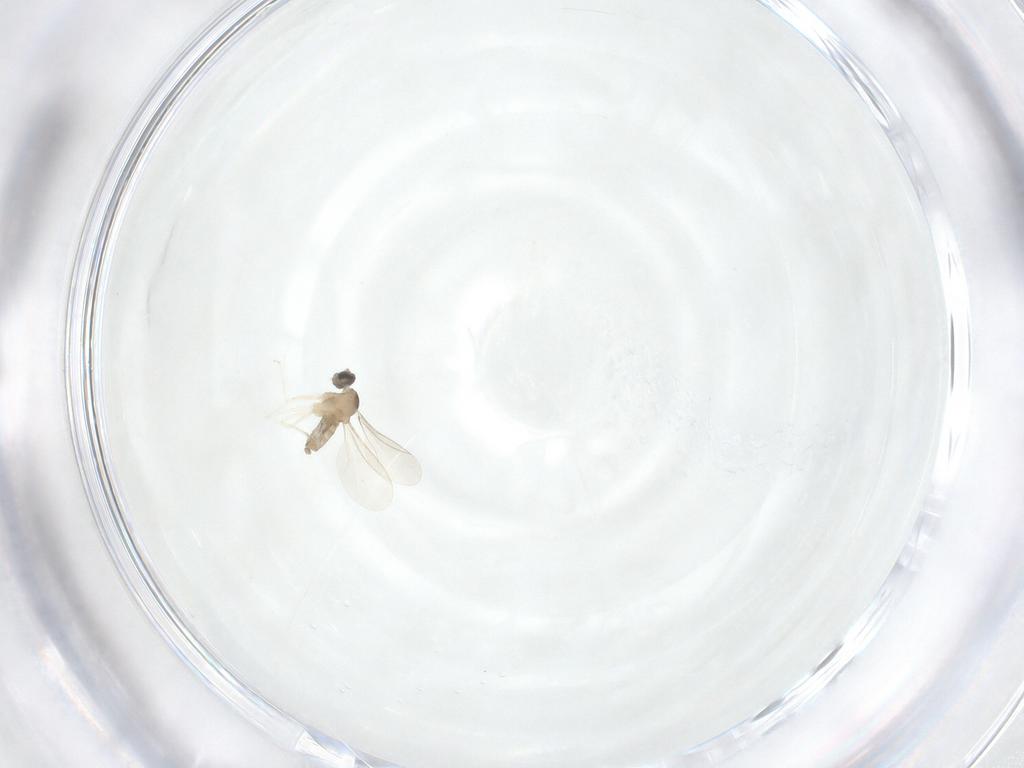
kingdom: Animalia
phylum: Arthropoda
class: Insecta
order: Diptera
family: Cecidomyiidae
